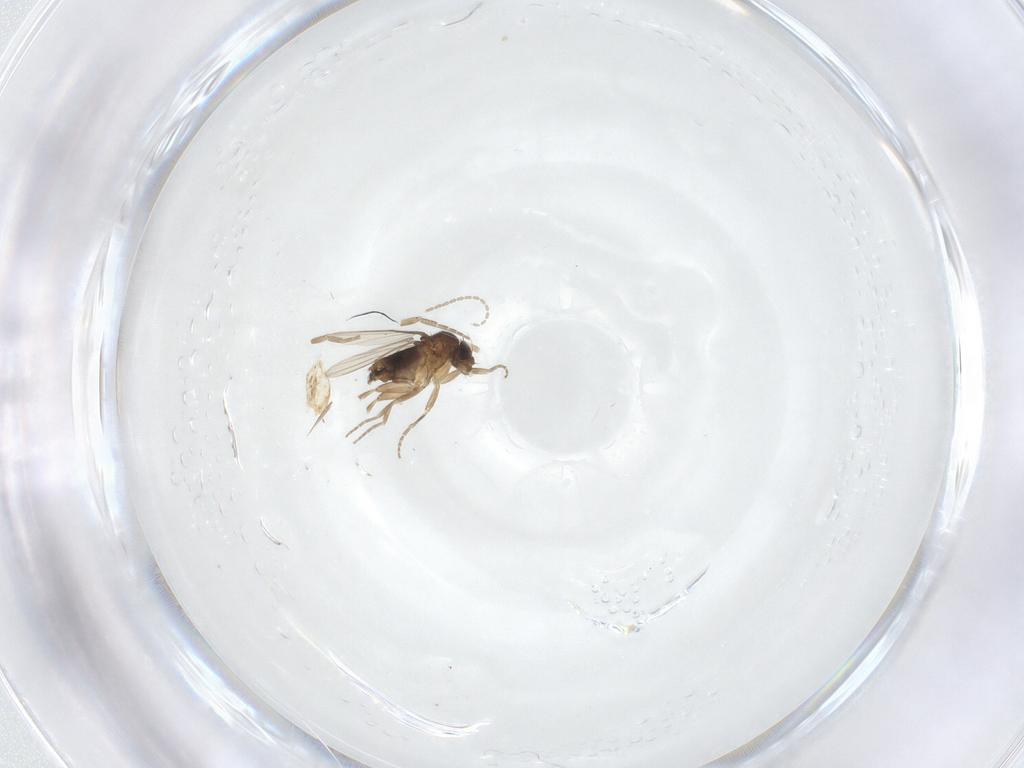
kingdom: Animalia
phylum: Arthropoda
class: Insecta
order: Diptera
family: Phoridae
